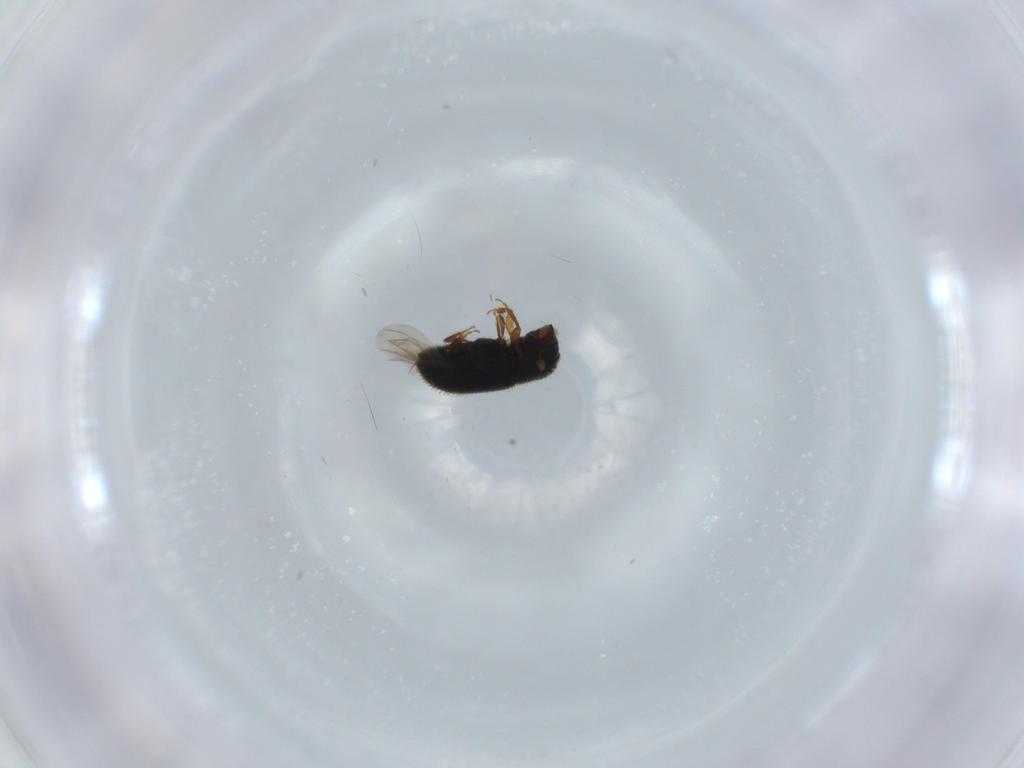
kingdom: Animalia
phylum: Arthropoda
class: Insecta
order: Coleoptera
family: Curculionidae
